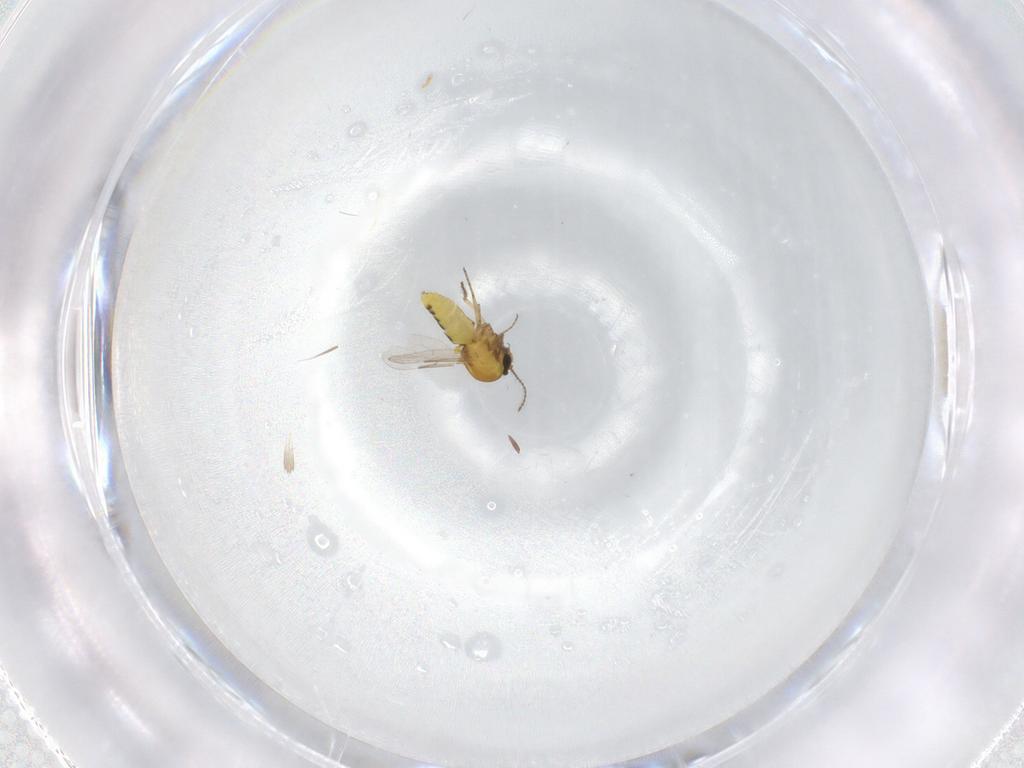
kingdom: Animalia
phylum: Arthropoda
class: Insecta
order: Diptera
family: Ceratopogonidae
